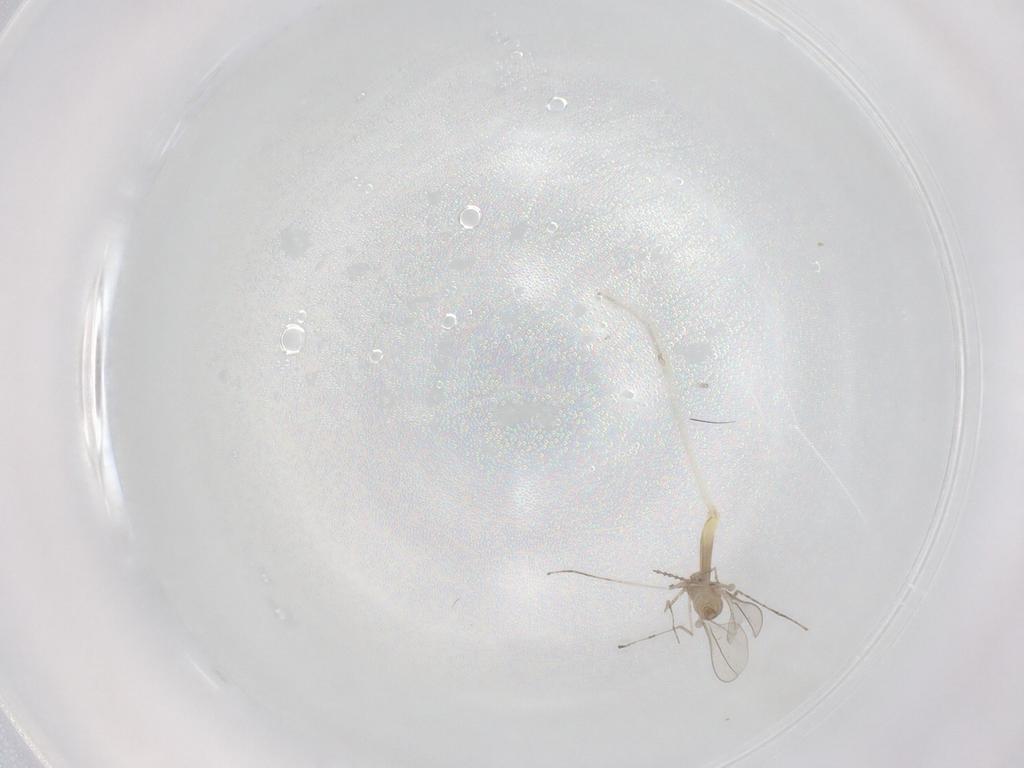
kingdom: Animalia
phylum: Arthropoda
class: Insecta
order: Diptera
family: Cecidomyiidae
